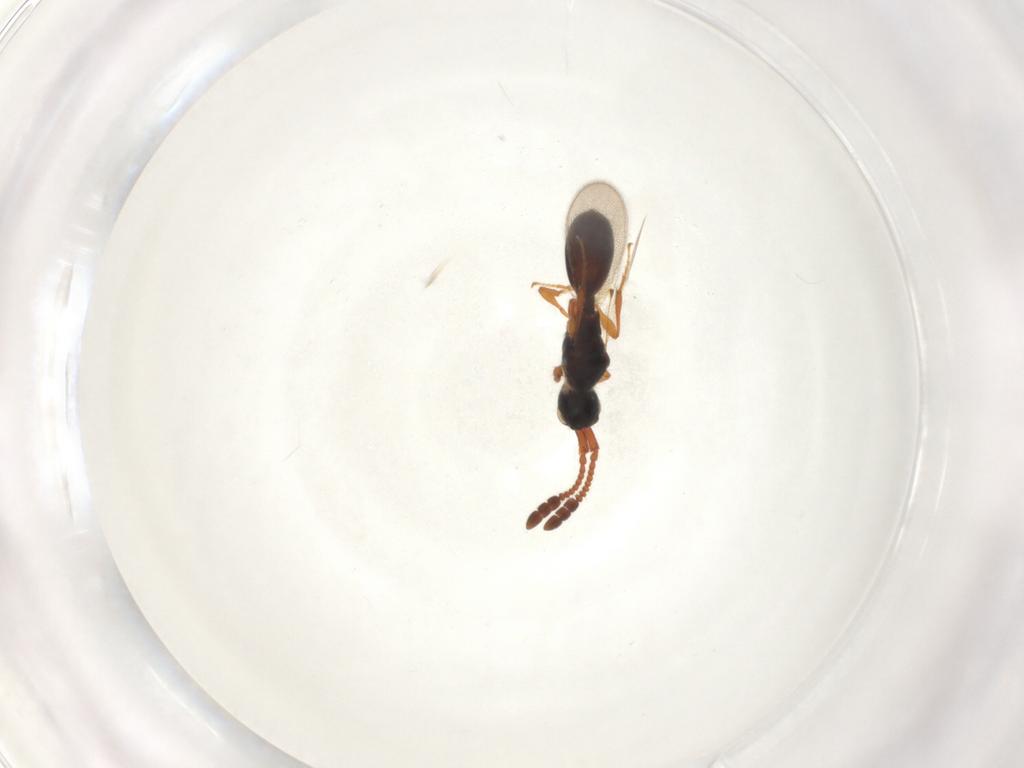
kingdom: Animalia
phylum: Arthropoda
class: Insecta
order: Hymenoptera
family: Diapriidae
